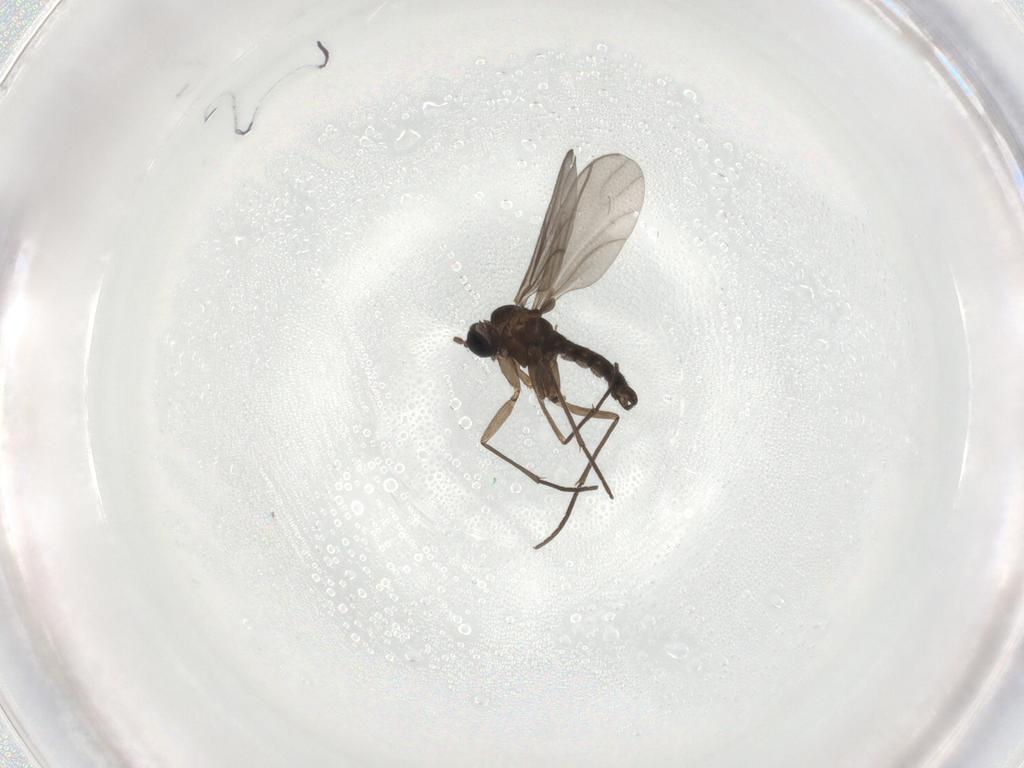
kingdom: Animalia
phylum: Arthropoda
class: Insecta
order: Diptera
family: Sciaridae
